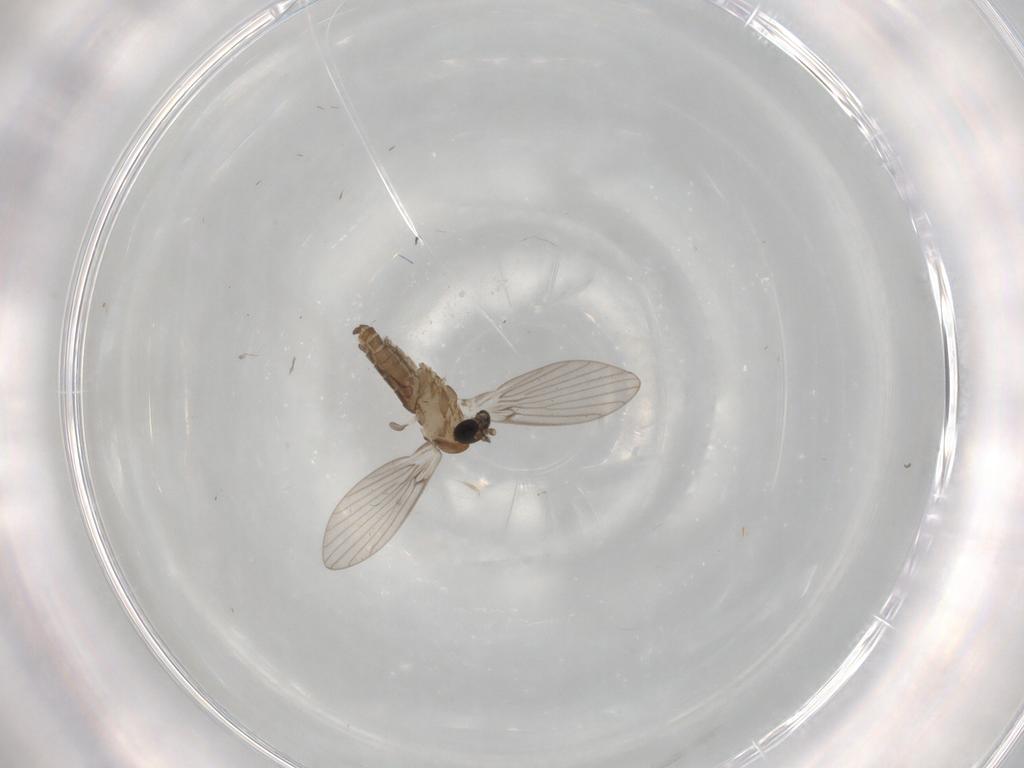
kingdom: Animalia
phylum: Arthropoda
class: Insecta
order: Diptera
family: Psychodidae
